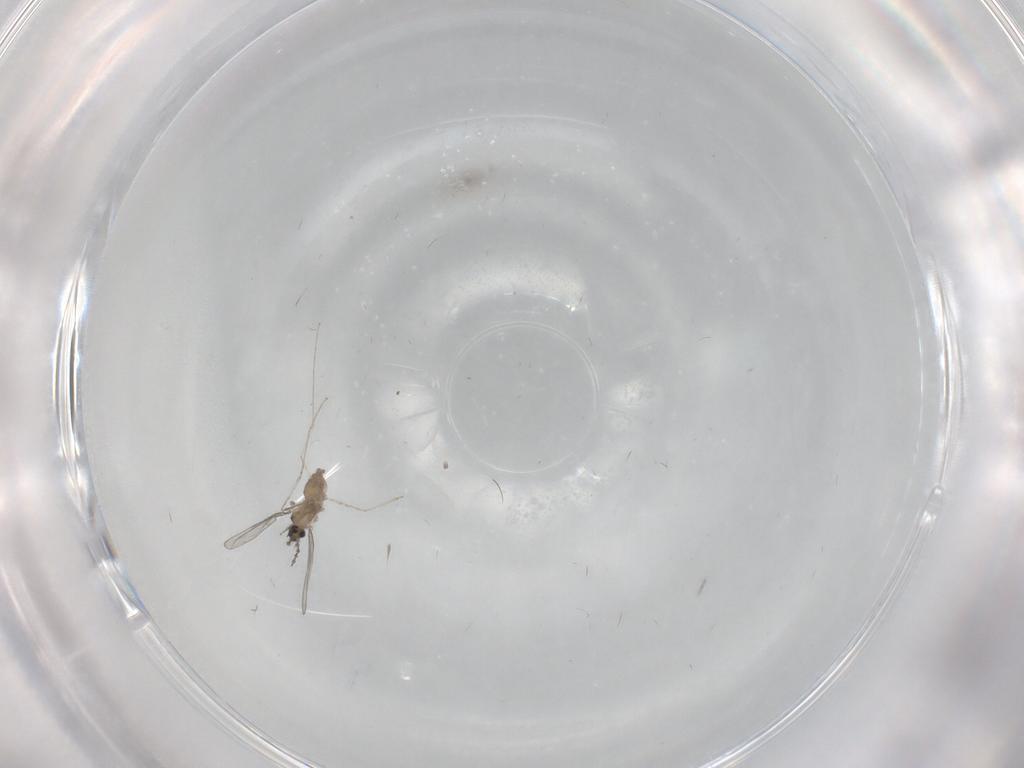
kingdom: Animalia
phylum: Arthropoda
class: Insecta
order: Diptera
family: Cecidomyiidae
